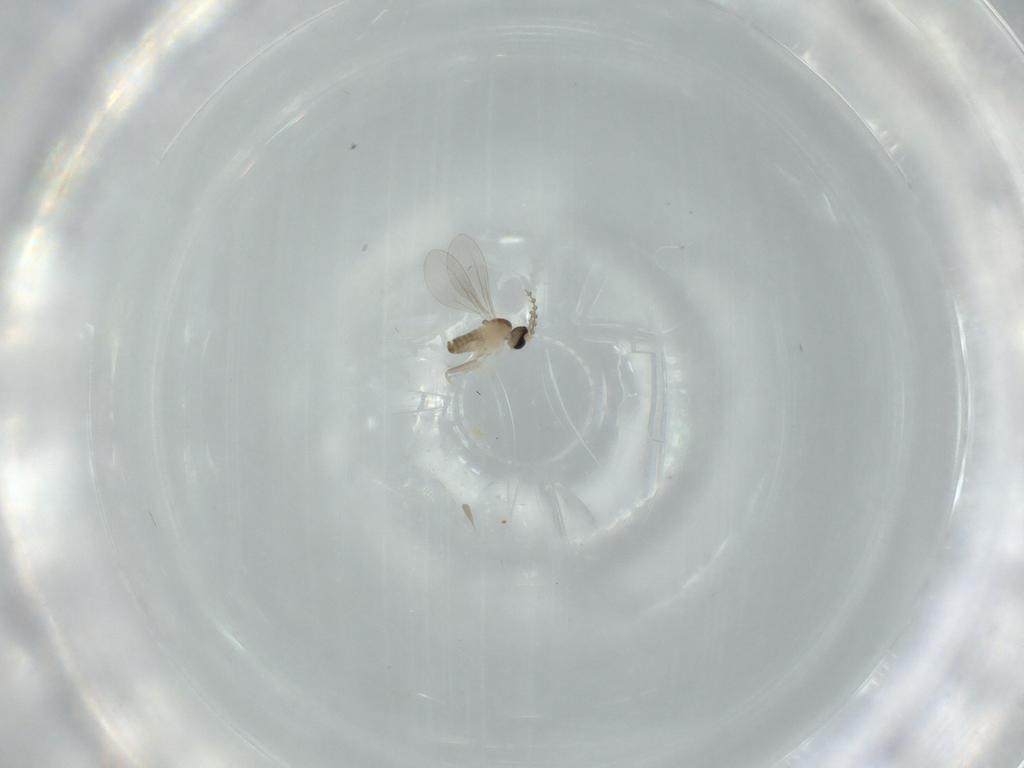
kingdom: Animalia
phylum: Arthropoda
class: Insecta
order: Diptera
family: Cecidomyiidae
